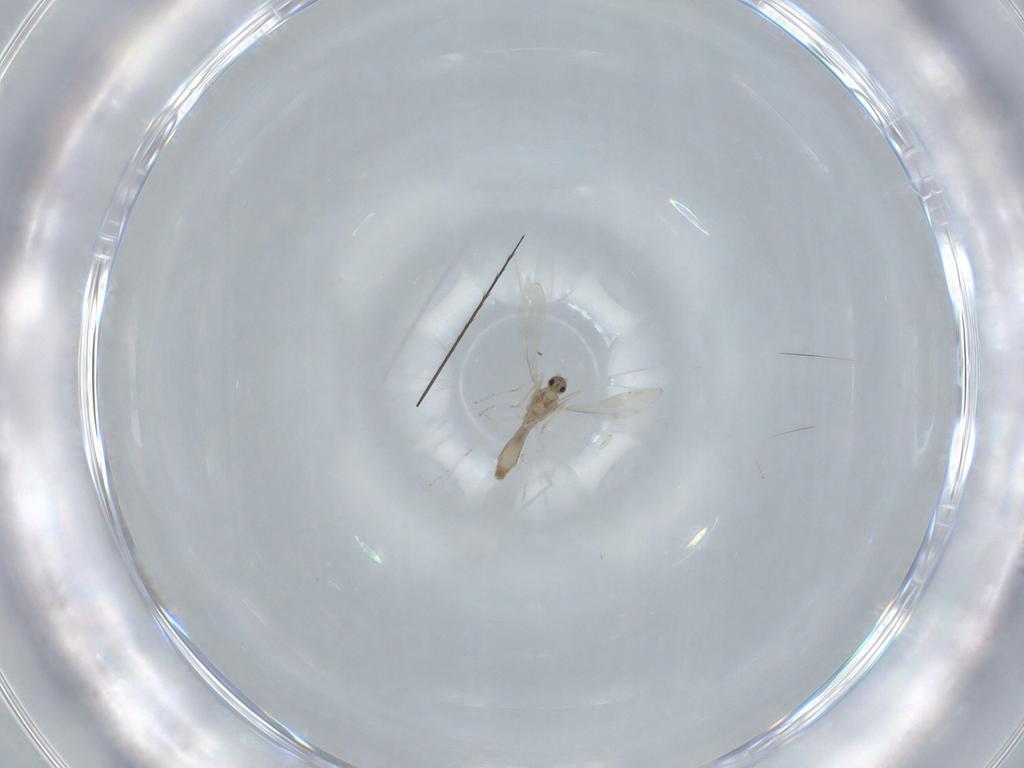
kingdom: Animalia
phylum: Arthropoda
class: Insecta
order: Diptera
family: Cecidomyiidae
